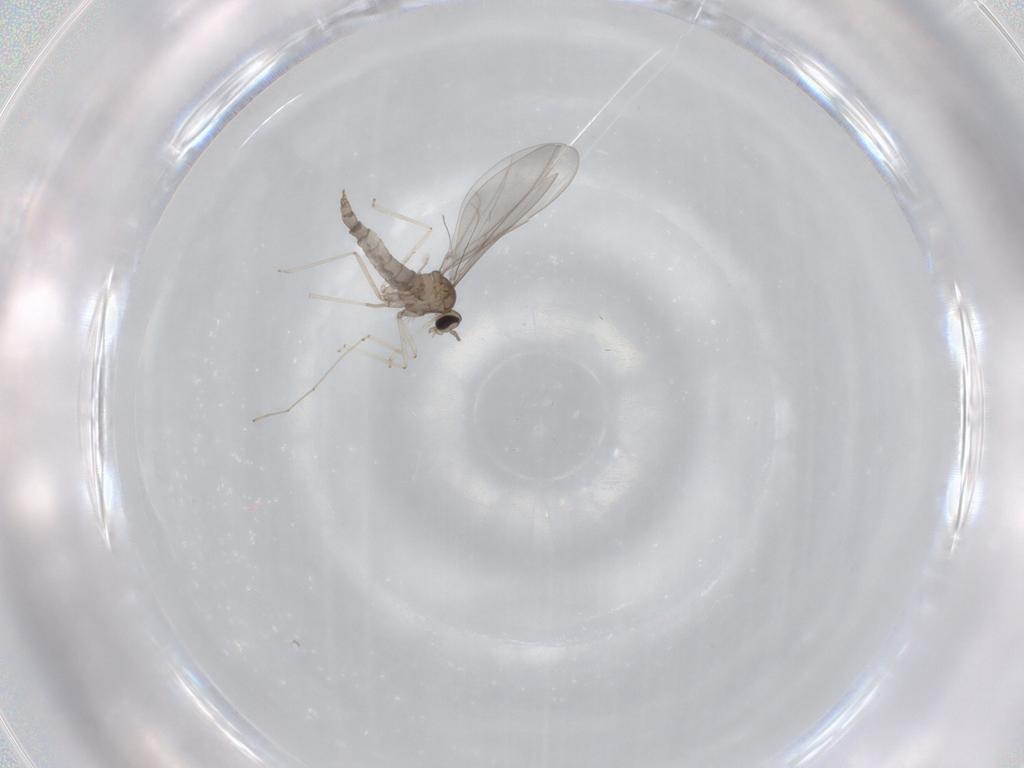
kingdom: Animalia
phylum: Arthropoda
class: Insecta
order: Diptera
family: Cecidomyiidae
